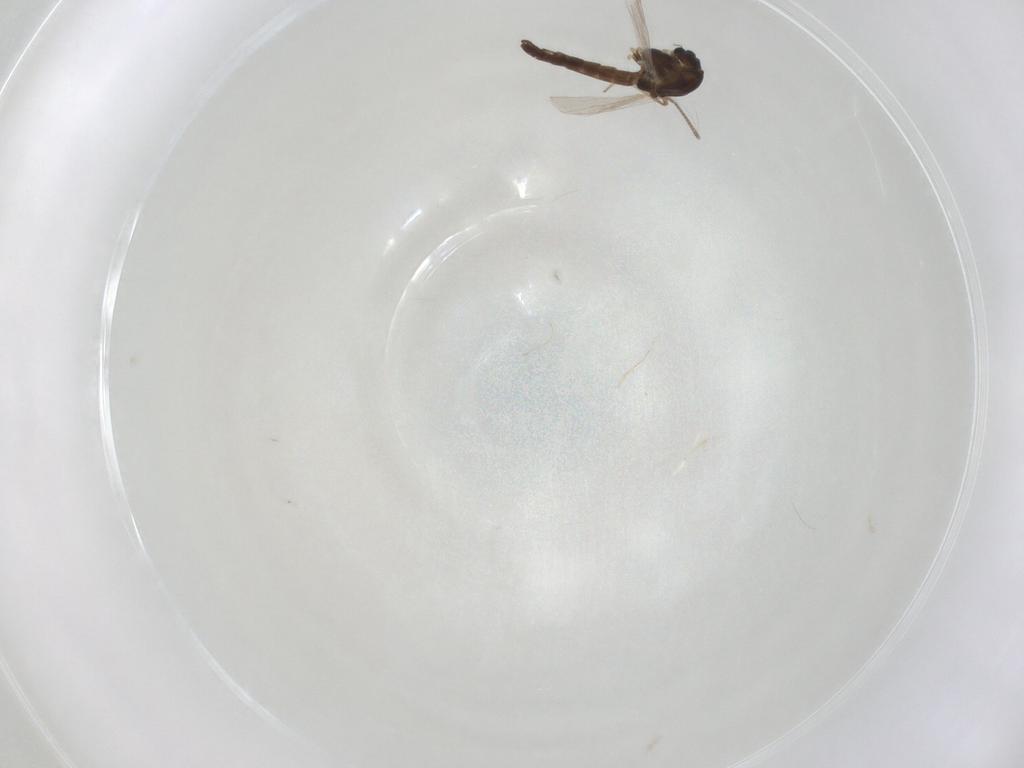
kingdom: Animalia
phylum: Arthropoda
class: Insecta
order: Diptera
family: Chironomidae
